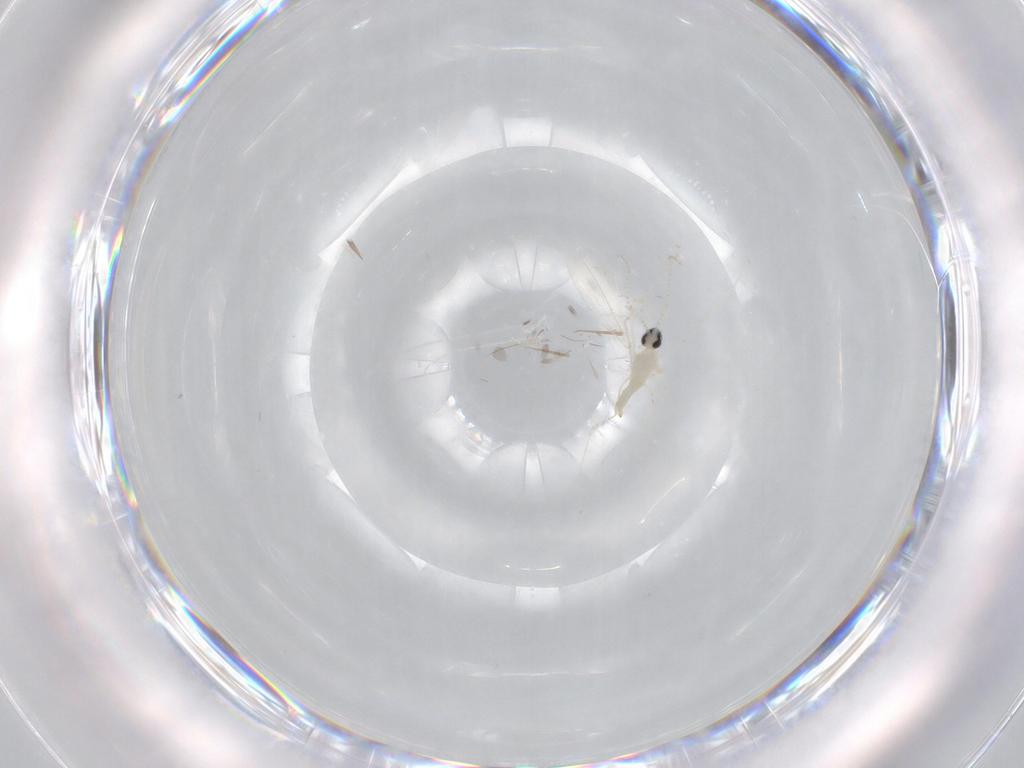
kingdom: Animalia
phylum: Arthropoda
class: Insecta
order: Diptera
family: Cecidomyiidae
